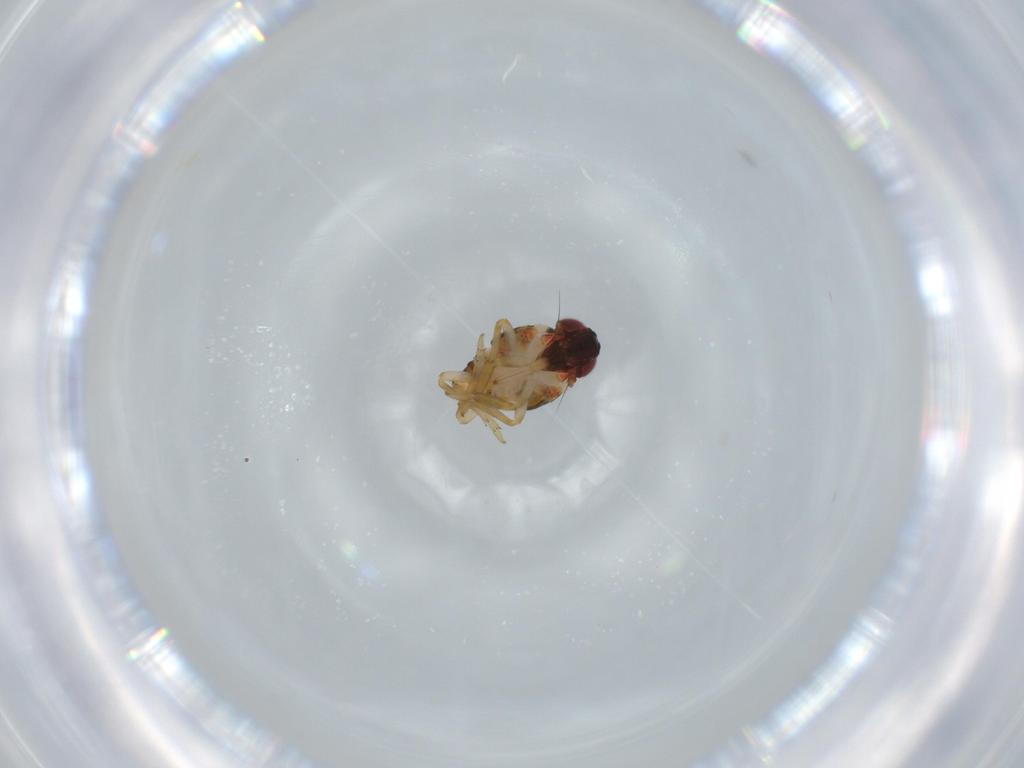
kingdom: Animalia
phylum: Arthropoda
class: Insecta
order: Hemiptera
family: Issidae
